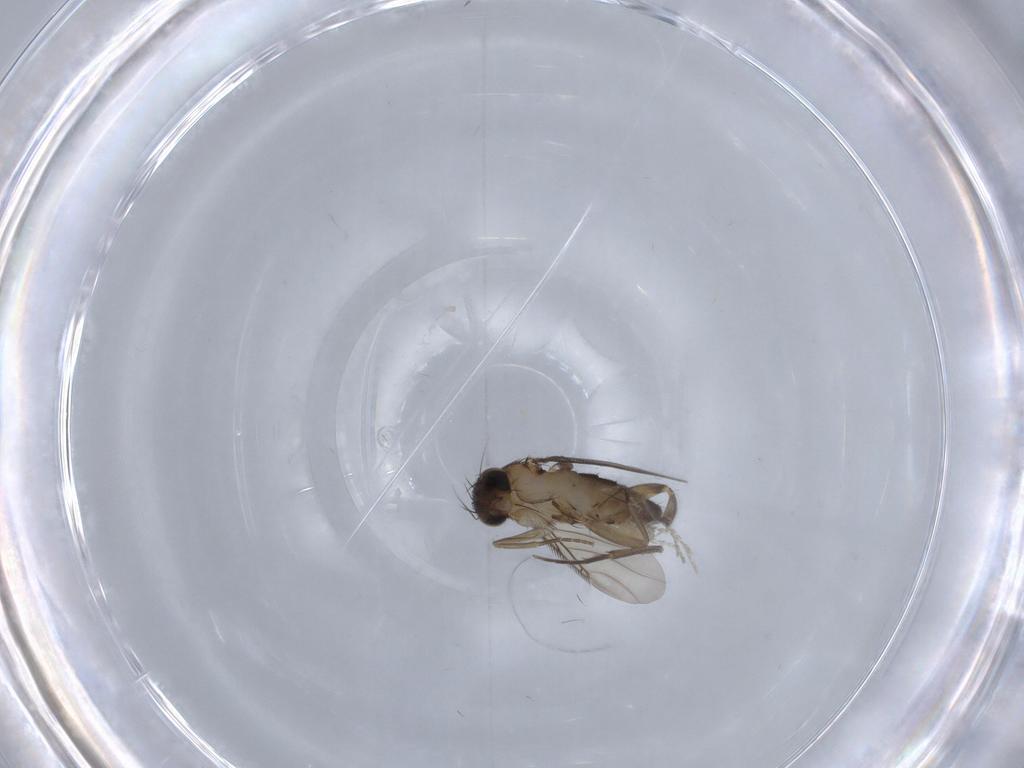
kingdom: Animalia
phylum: Arthropoda
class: Insecta
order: Diptera
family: Phoridae
